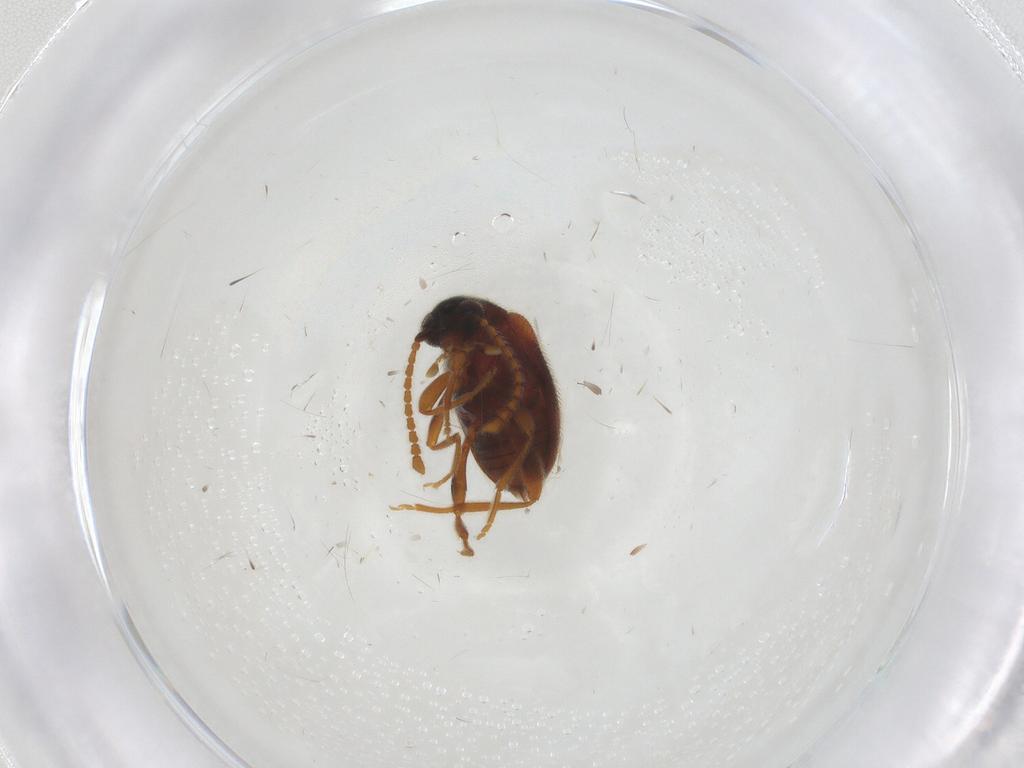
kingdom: Animalia
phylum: Arthropoda
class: Insecta
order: Coleoptera
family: Aderidae
